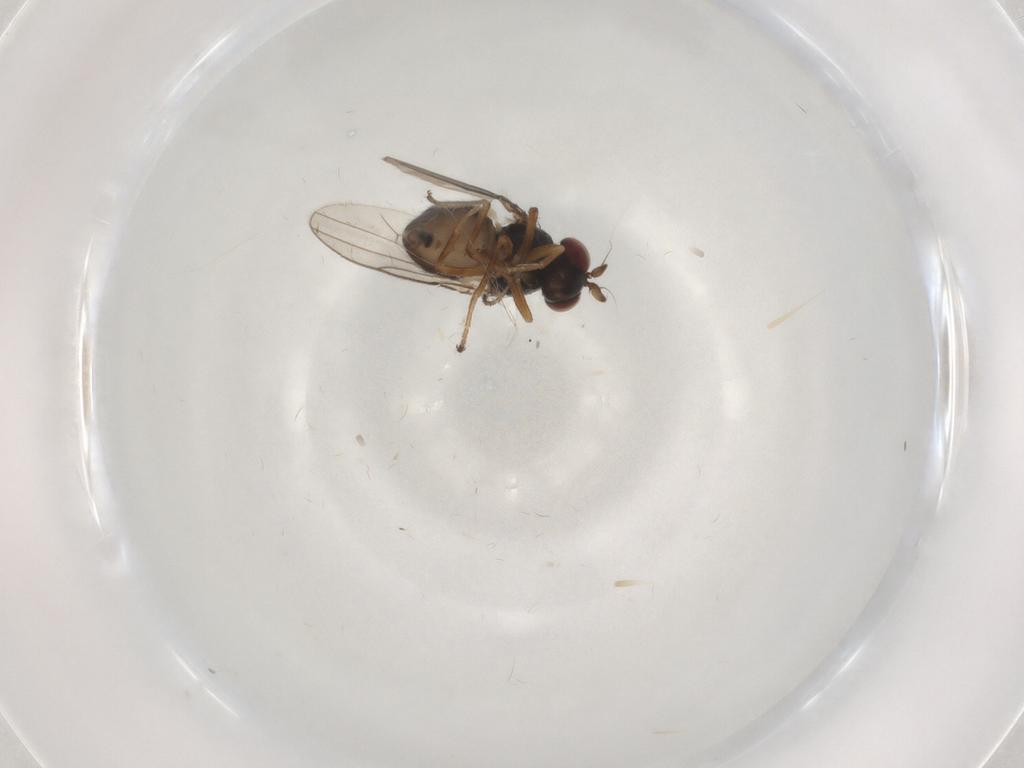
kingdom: Animalia
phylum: Arthropoda
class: Insecta
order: Diptera
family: Ephydridae
